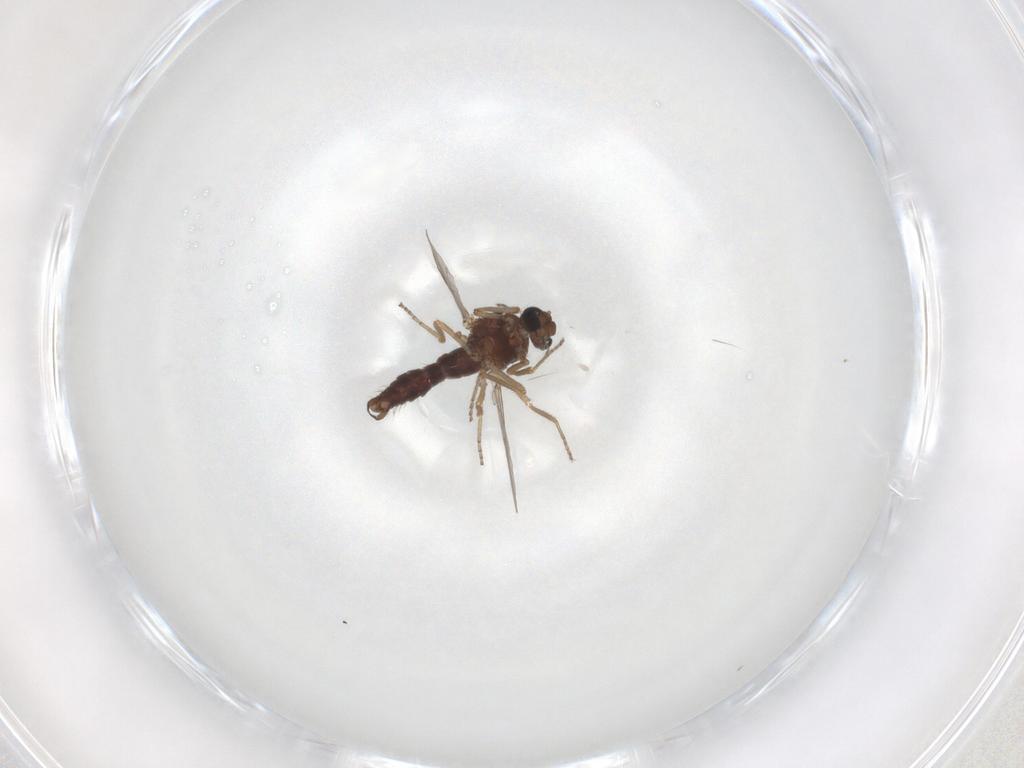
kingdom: Animalia
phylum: Arthropoda
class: Insecta
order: Diptera
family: Ceratopogonidae
